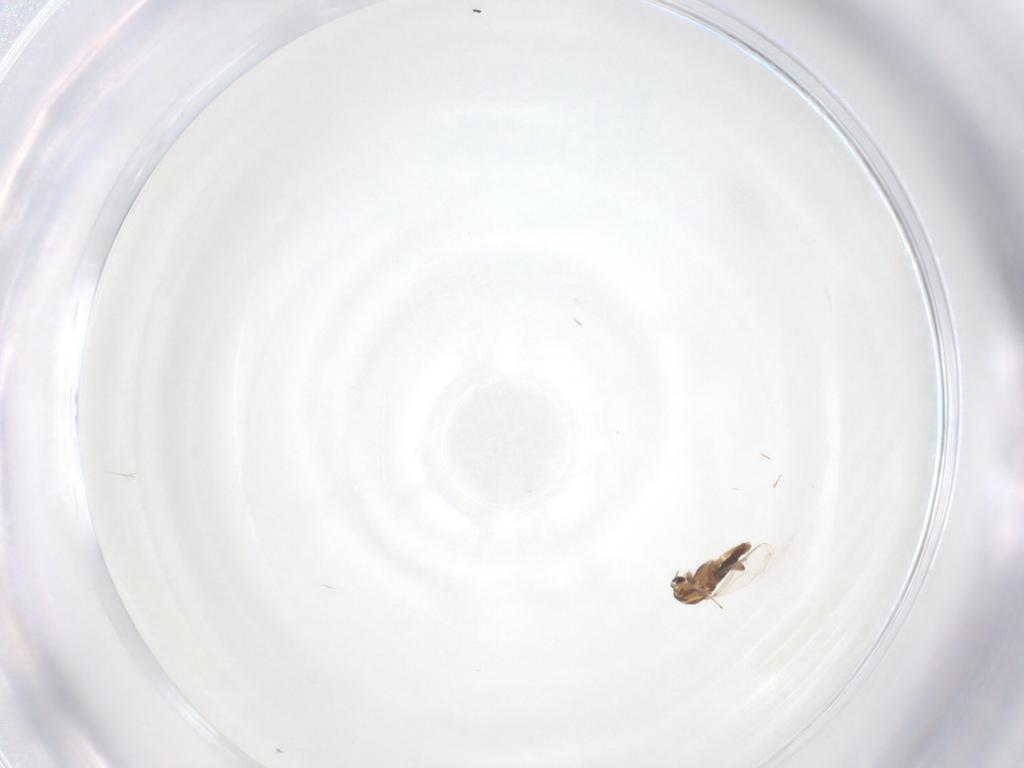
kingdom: Animalia
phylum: Arthropoda
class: Insecta
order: Diptera
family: Chironomidae
